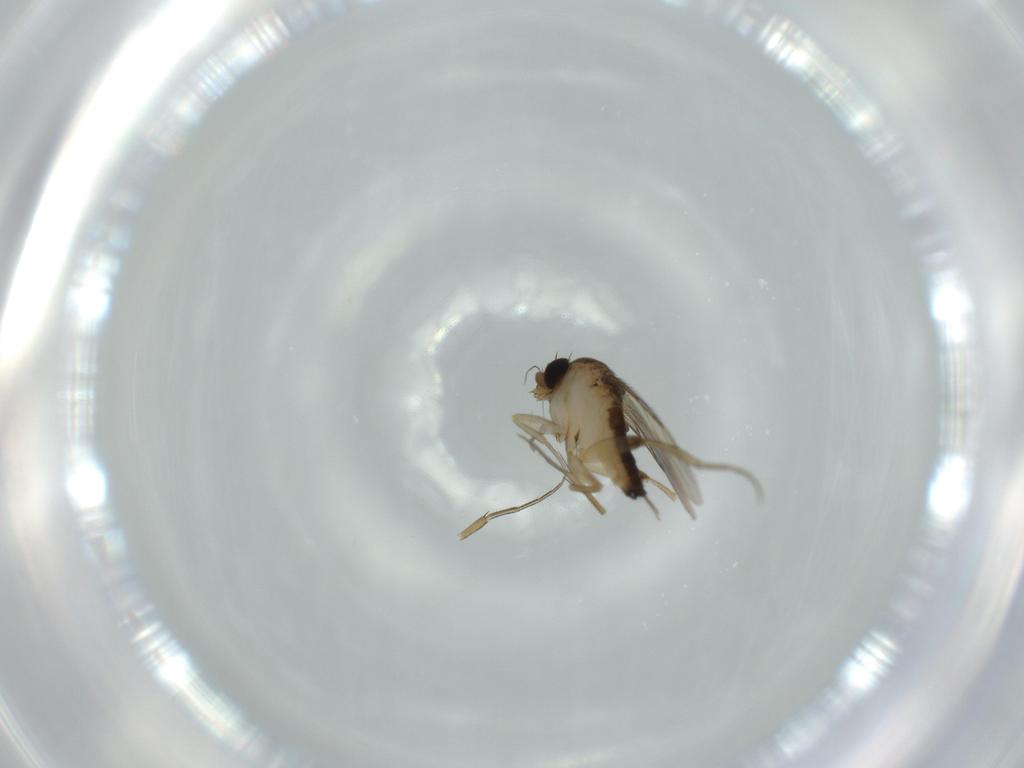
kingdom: Animalia
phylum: Arthropoda
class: Insecta
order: Diptera
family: Phoridae
